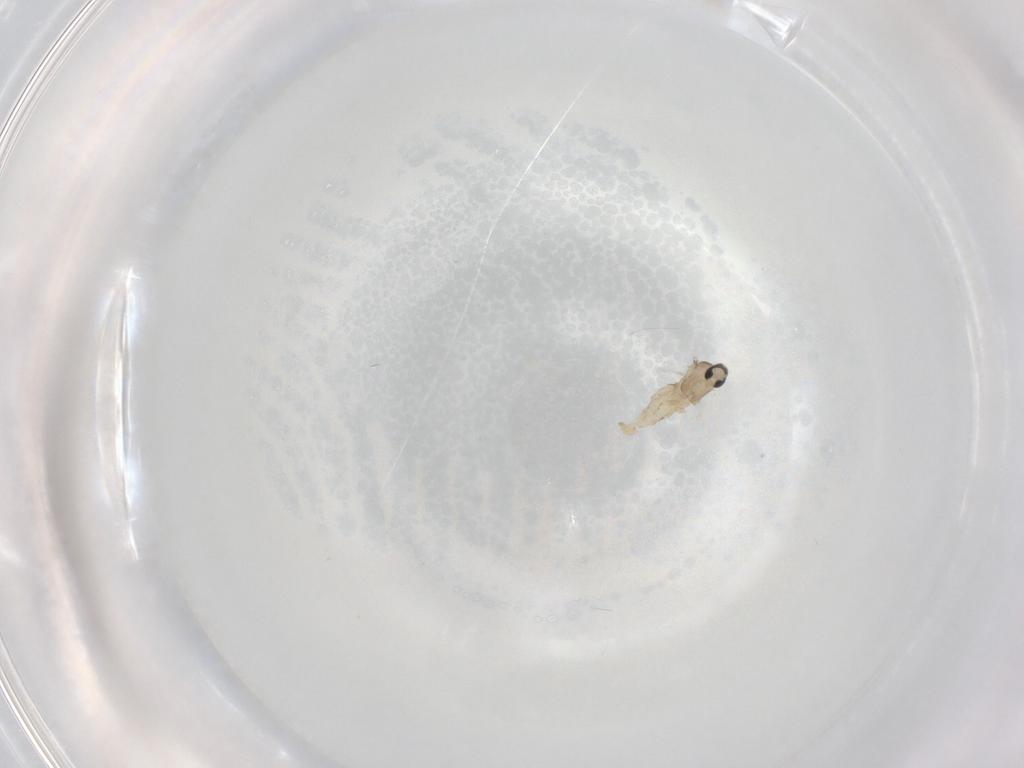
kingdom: Animalia
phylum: Arthropoda
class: Insecta
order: Diptera
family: Cecidomyiidae
